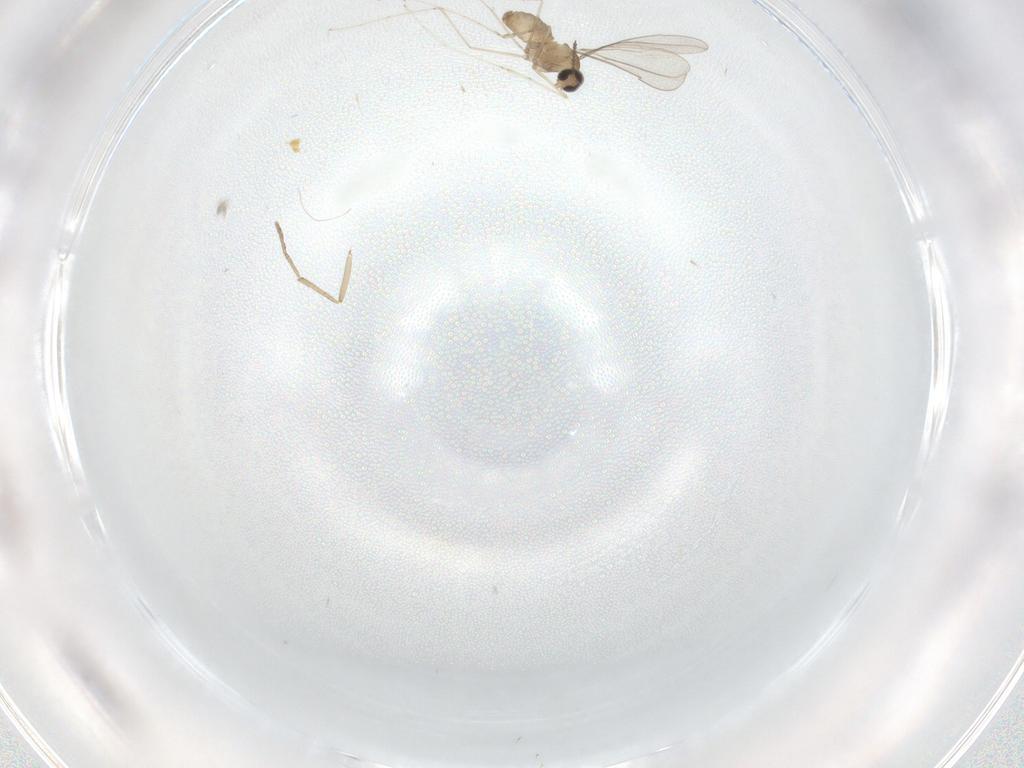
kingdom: Animalia
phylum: Arthropoda
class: Insecta
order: Diptera
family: Cecidomyiidae
